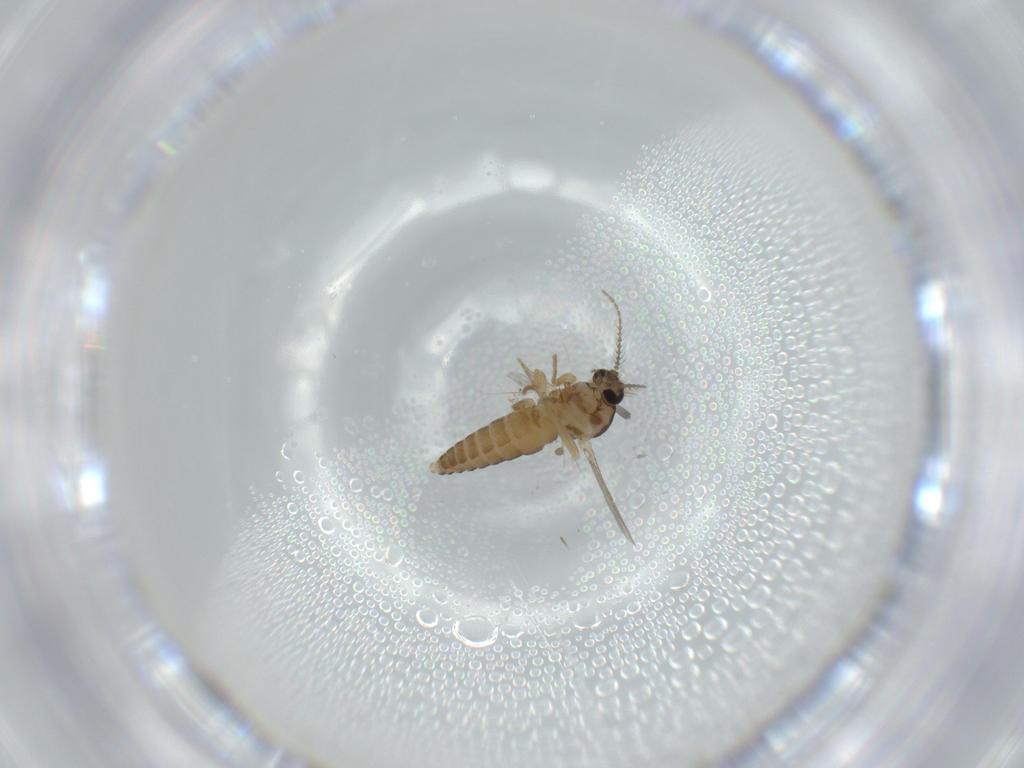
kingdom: Animalia
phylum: Arthropoda
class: Insecta
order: Diptera
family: Ceratopogonidae
